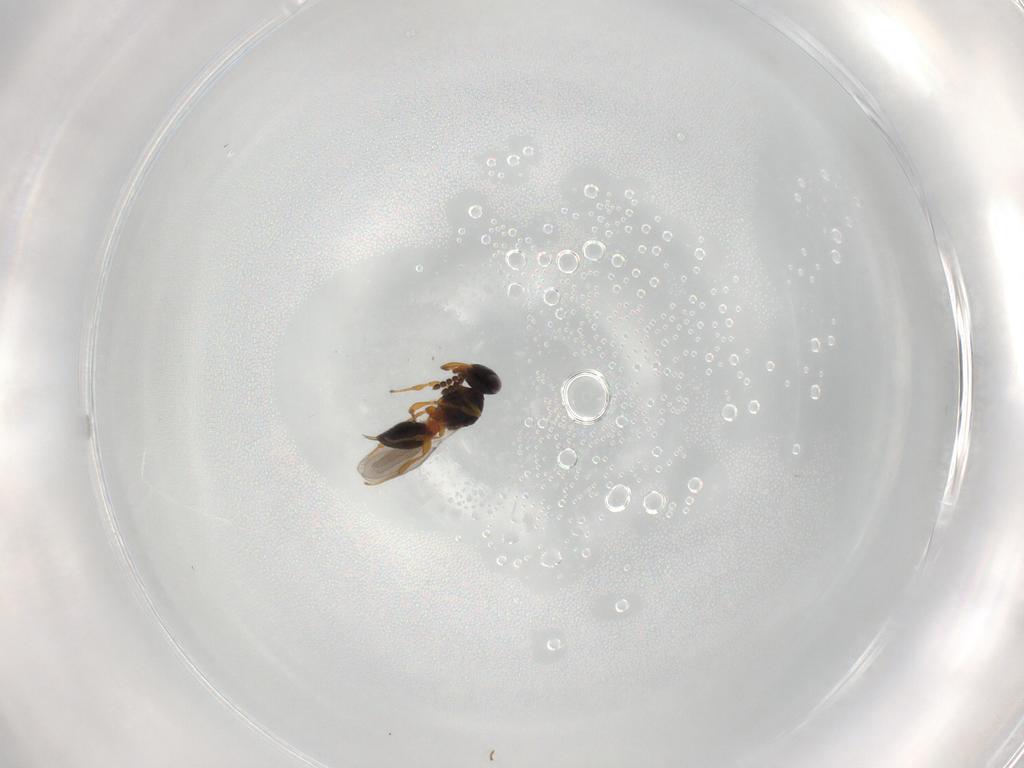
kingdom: Animalia
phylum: Arthropoda
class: Insecta
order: Hymenoptera
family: Platygastridae
